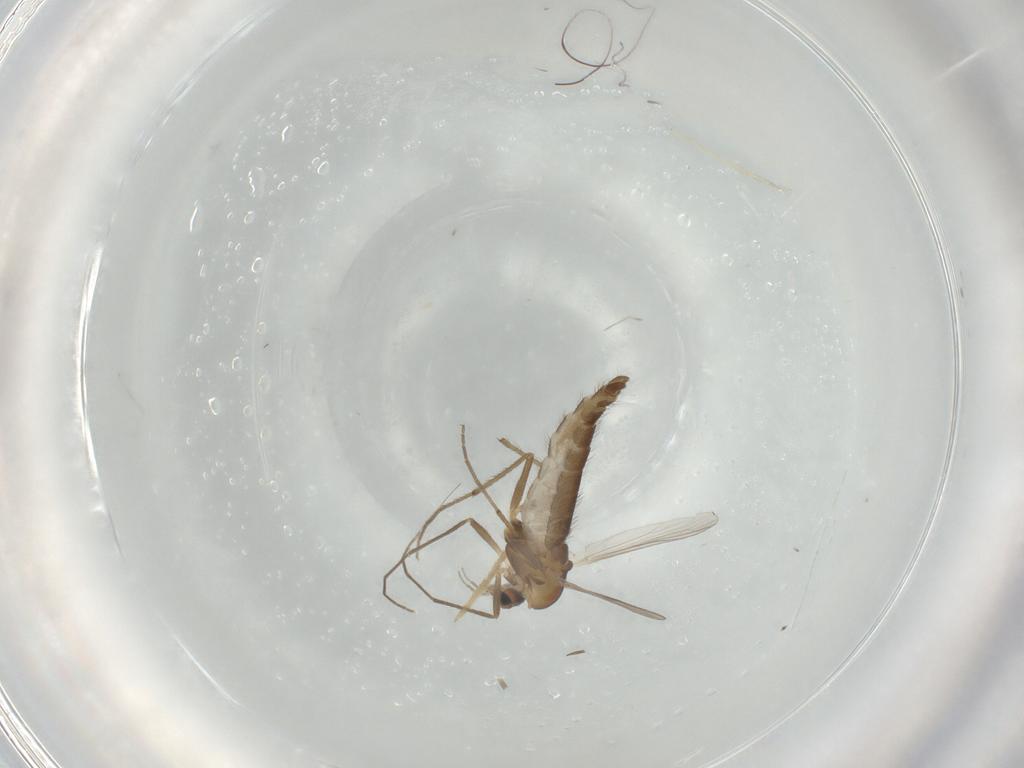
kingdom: Animalia
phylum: Arthropoda
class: Insecta
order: Diptera
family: Chironomidae
